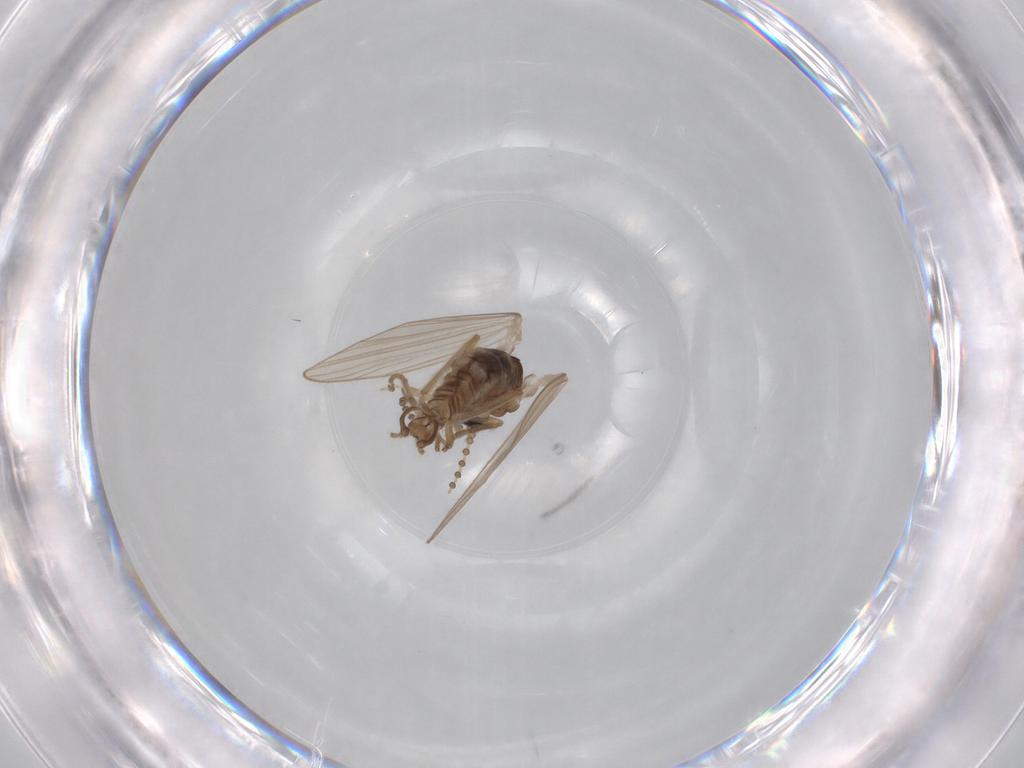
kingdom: Animalia
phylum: Arthropoda
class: Insecta
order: Diptera
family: Psychodidae
